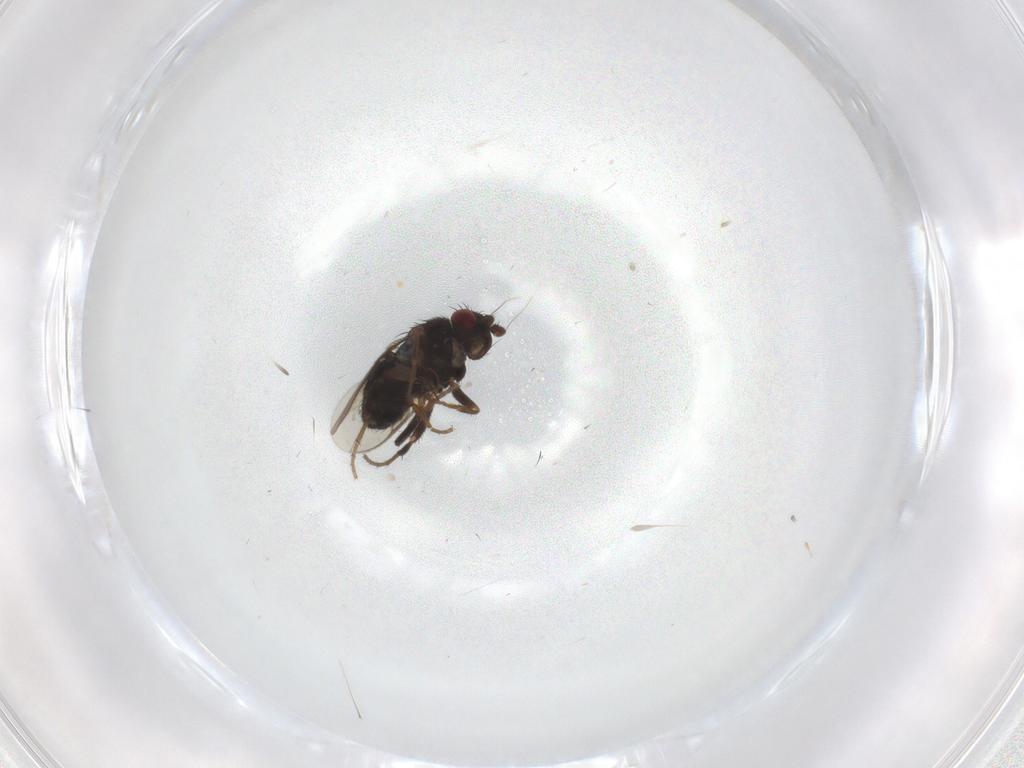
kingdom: Animalia
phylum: Arthropoda
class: Insecta
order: Diptera
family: Sphaeroceridae
